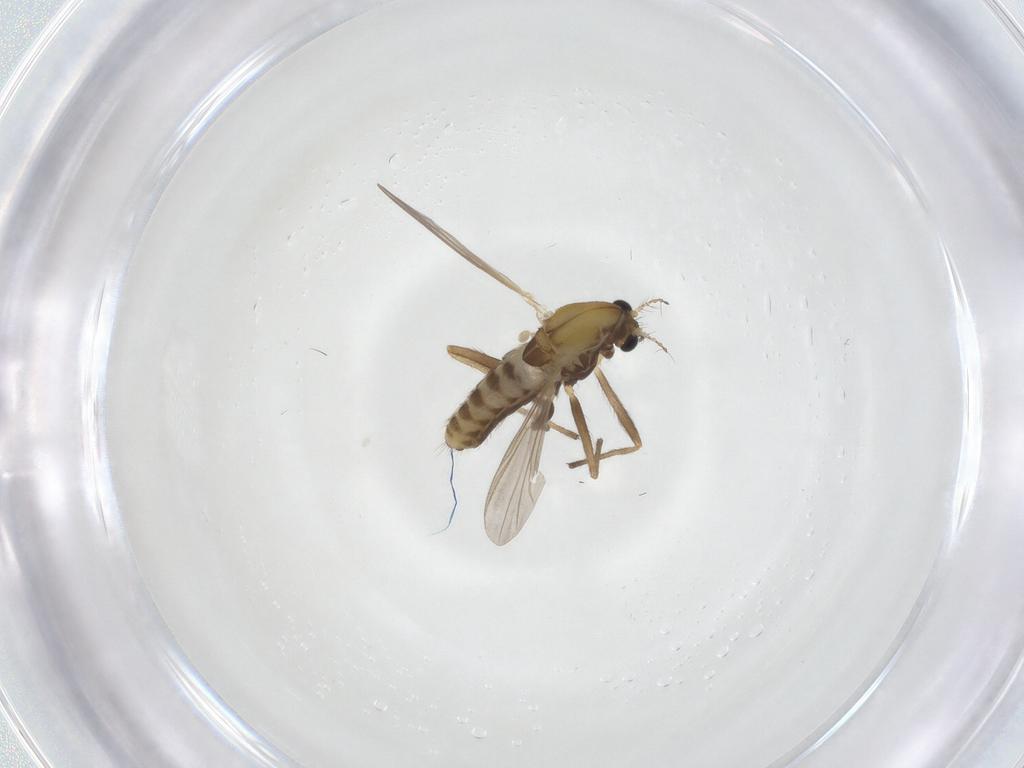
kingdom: Animalia
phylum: Arthropoda
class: Insecta
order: Diptera
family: Chironomidae
